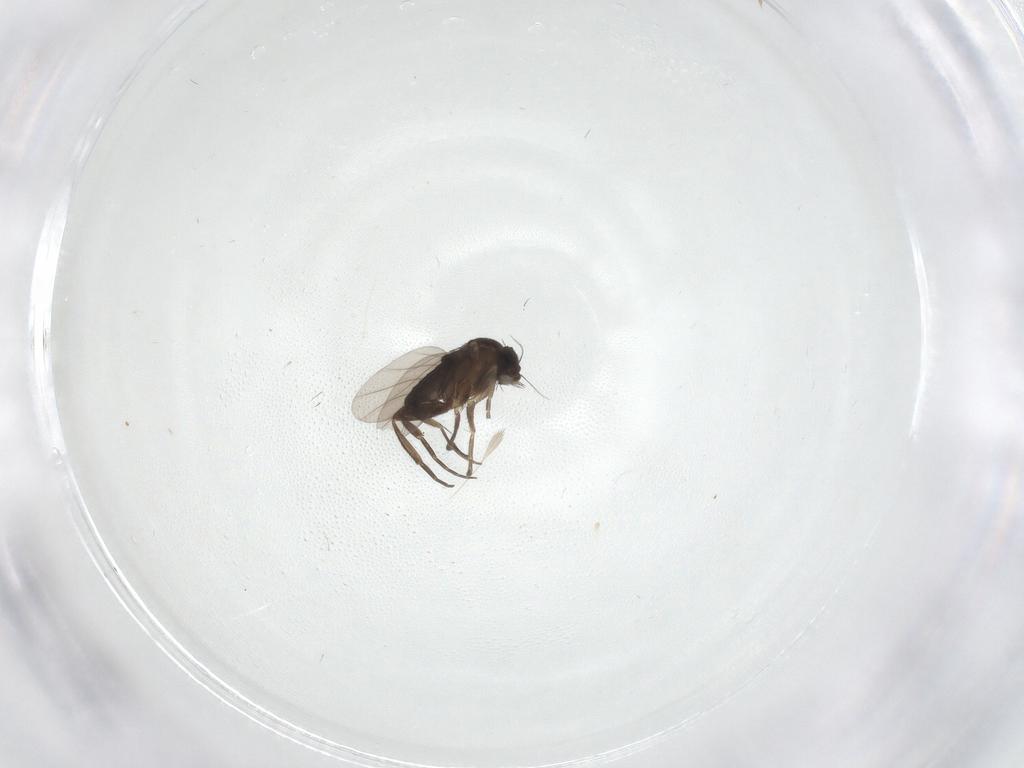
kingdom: Animalia
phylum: Arthropoda
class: Insecta
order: Diptera
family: Phoridae
